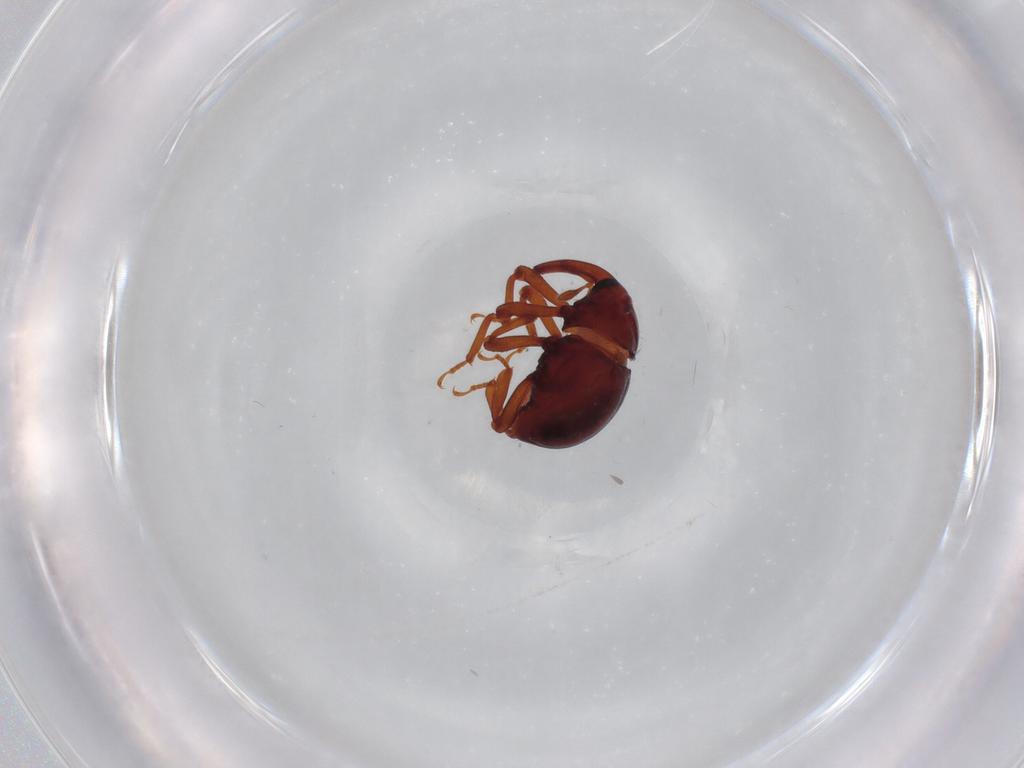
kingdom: Animalia
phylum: Arthropoda
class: Insecta
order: Coleoptera
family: Curculionidae
